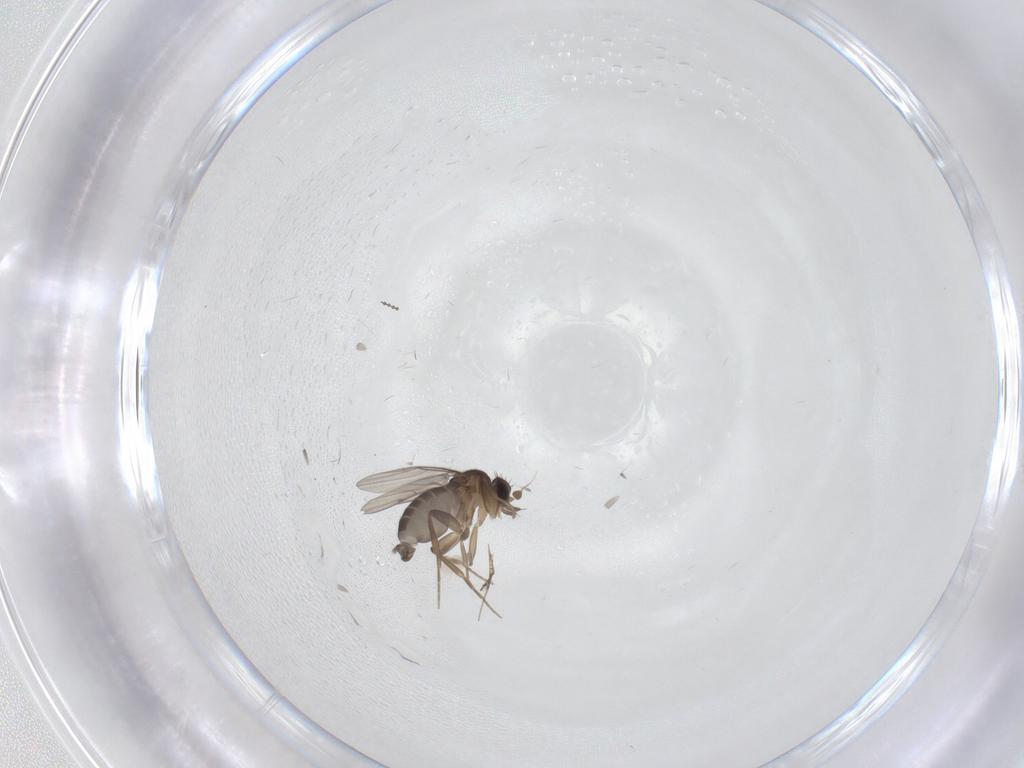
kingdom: Animalia
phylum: Arthropoda
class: Insecta
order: Diptera
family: Phoridae
